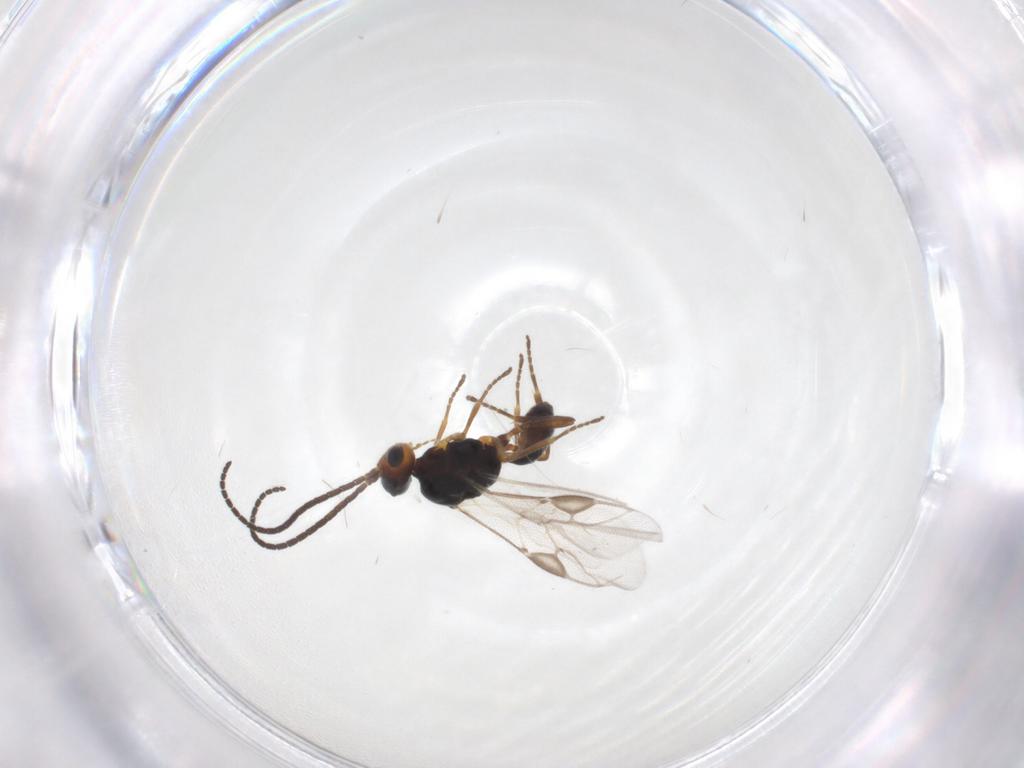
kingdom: Animalia
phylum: Arthropoda
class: Insecta
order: Hymenoptera
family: Braconidae
